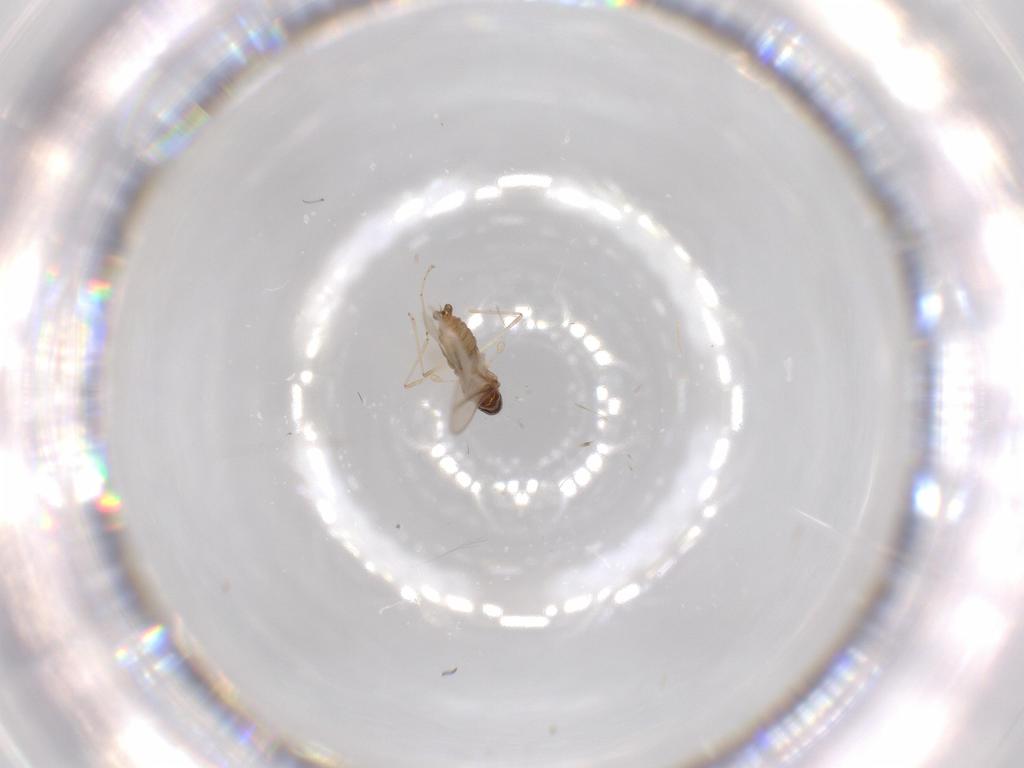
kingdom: Animalia
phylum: Arthropoda
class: Insecta
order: Diptera
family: Cecidomyiidae
